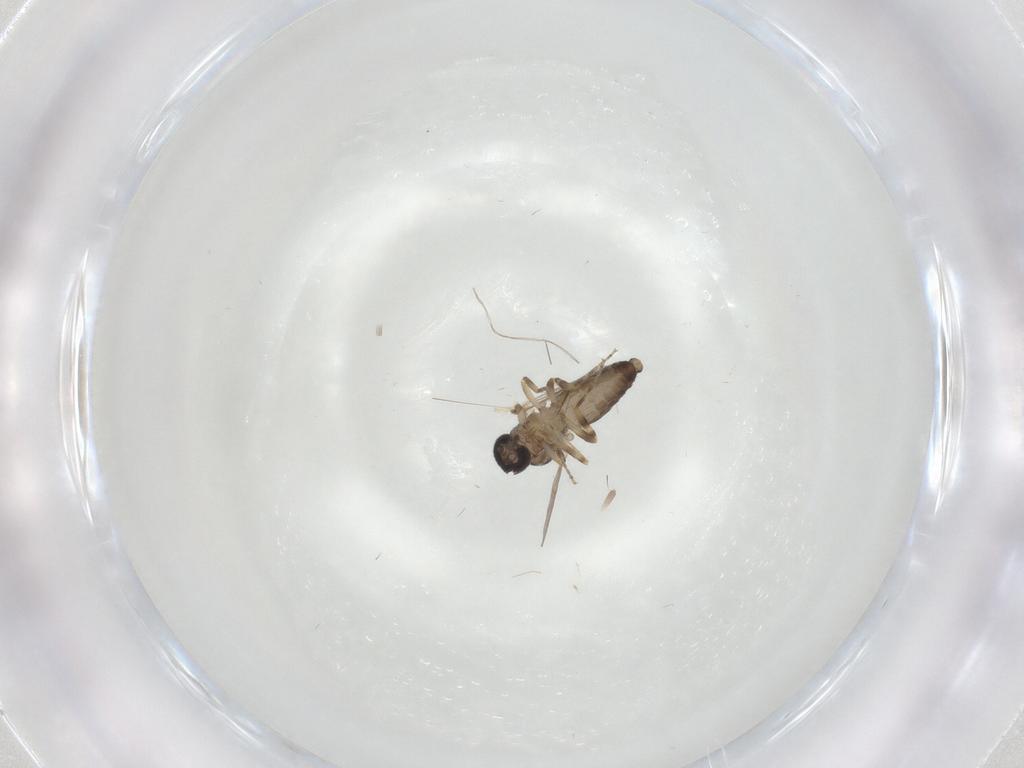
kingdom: Animalia
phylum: Arthropoda
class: Insecta
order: Diptera
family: Ceratopogonidae
